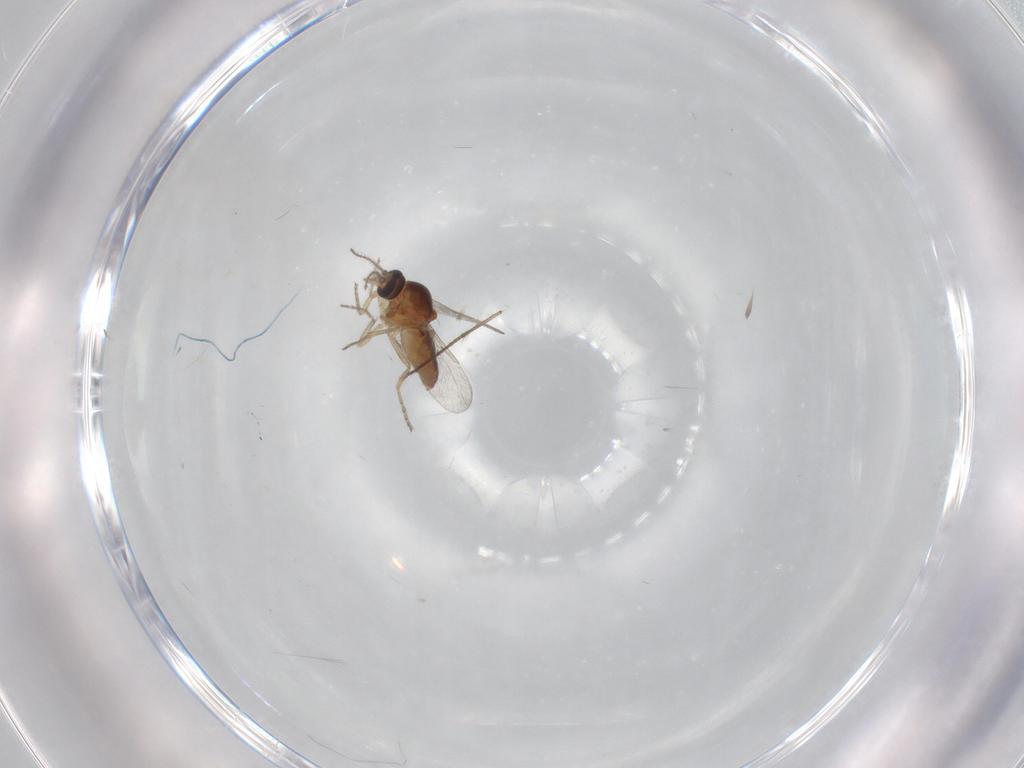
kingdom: Animalia
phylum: Arthropoda
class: Insecta
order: Diptera
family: Ceratopogonidae
